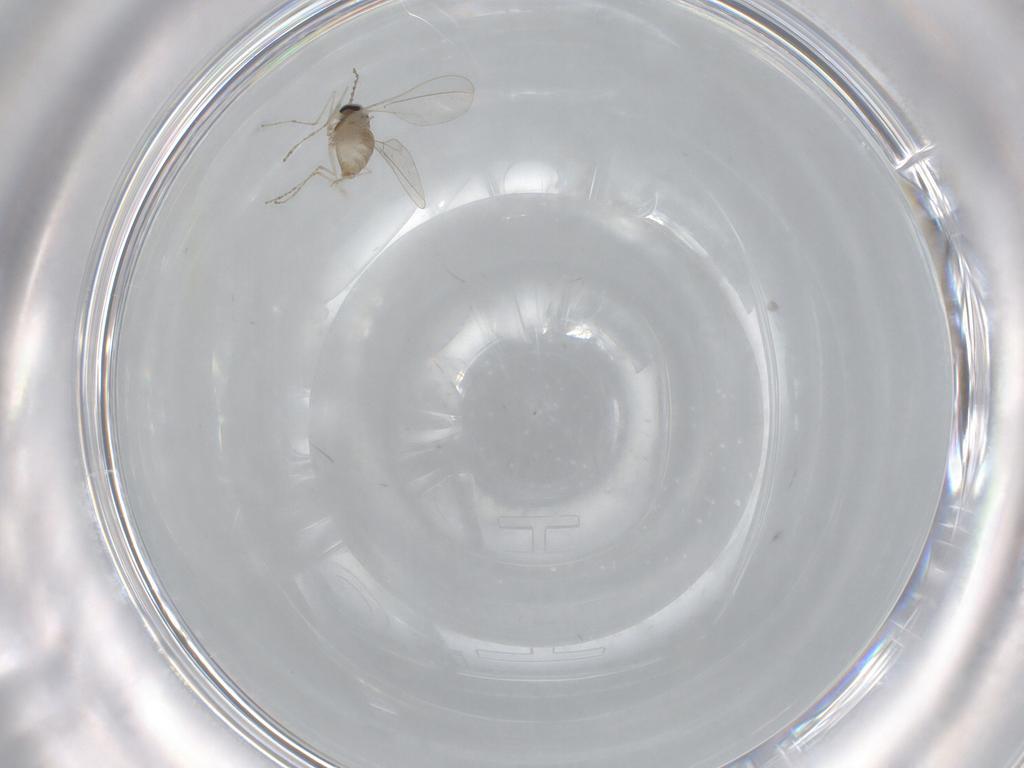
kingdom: Animalia
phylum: Arthropoda
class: Insecta
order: Diptera
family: Cecidomyiidae
